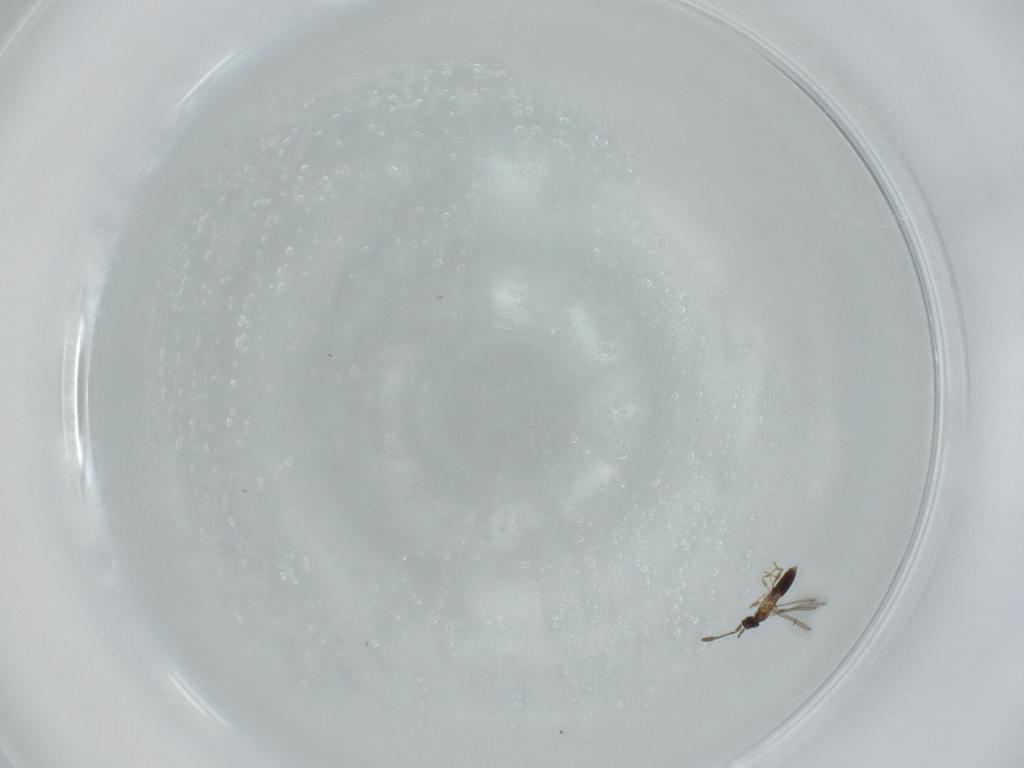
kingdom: Animalia
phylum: Arthropoda
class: Insecta
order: Hymenoptera
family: Mymaridae
